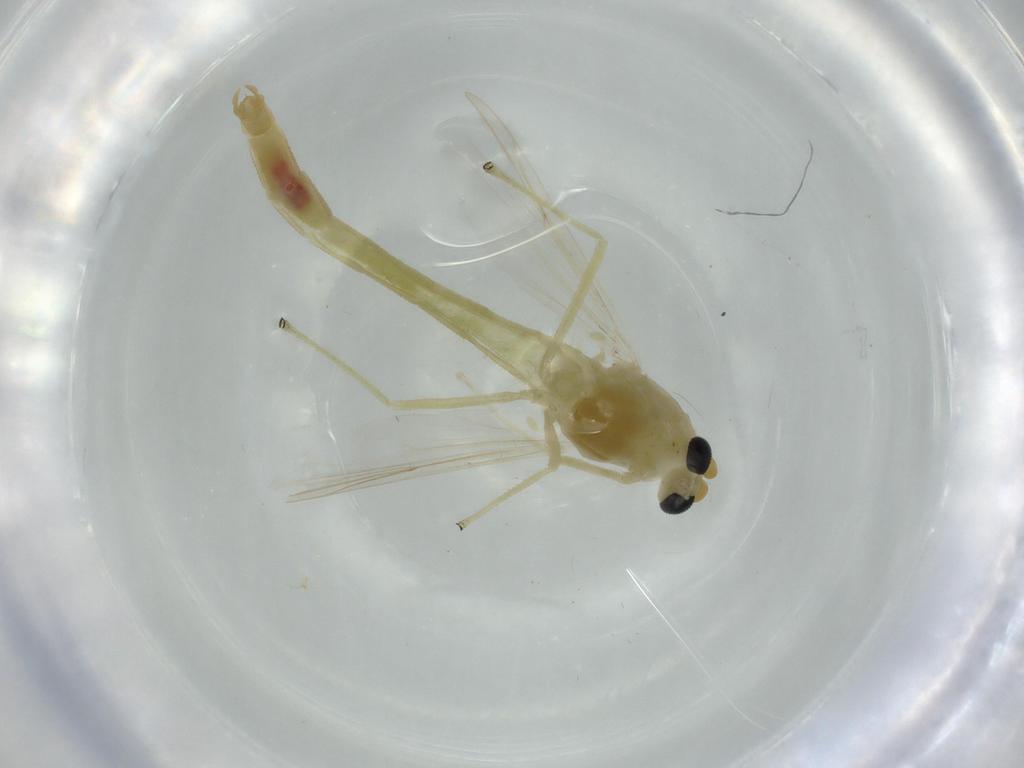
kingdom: Animalia
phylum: Arthropoda
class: Insecta
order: Diptera
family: Chironomidae
